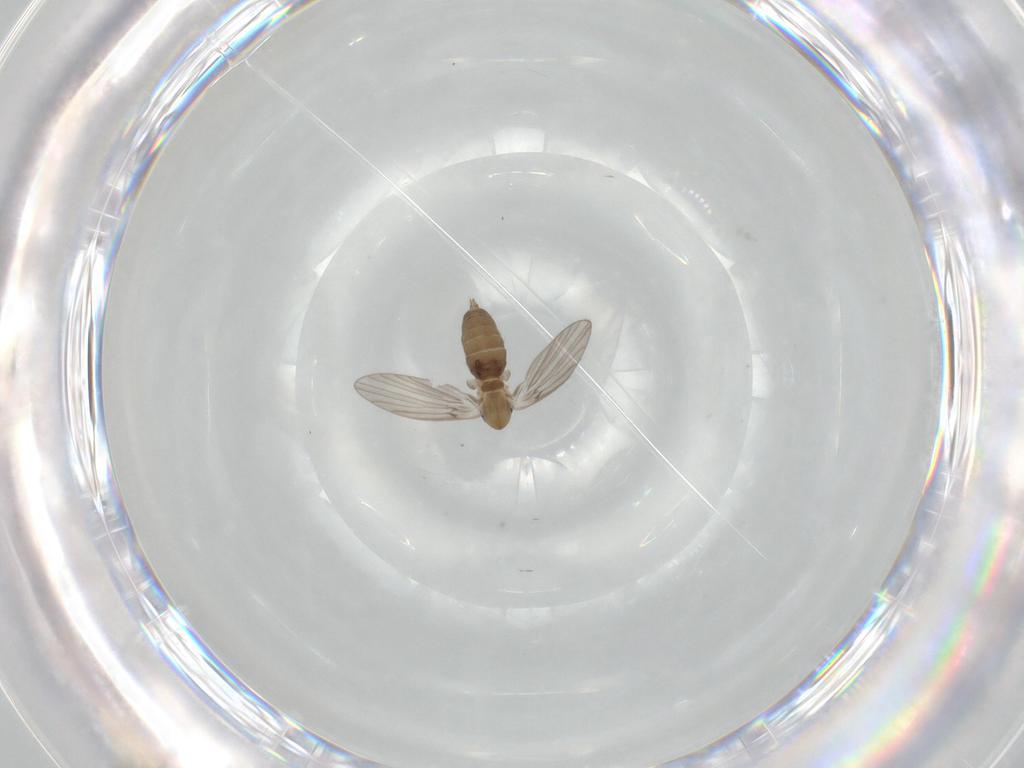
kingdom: Animalia
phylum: Arthropoda
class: Insecta
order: Diptera
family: Psychodidae
